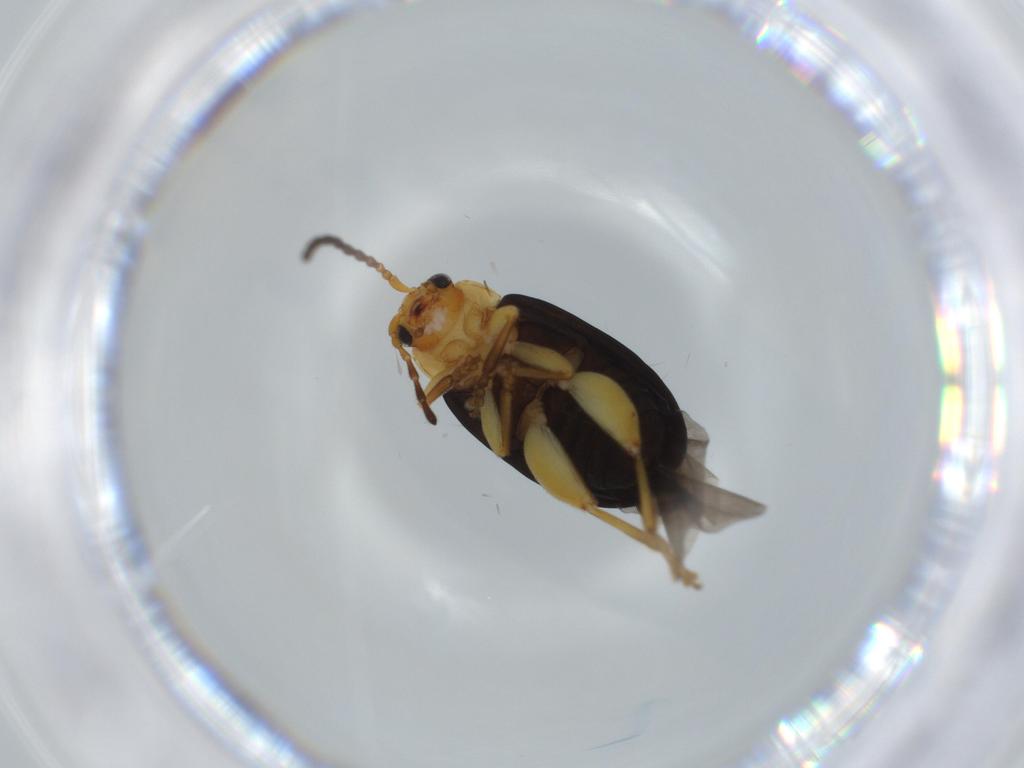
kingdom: Animalia
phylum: Arthropoda
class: Insecta
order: Coleoptera
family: Chrysomelidae
